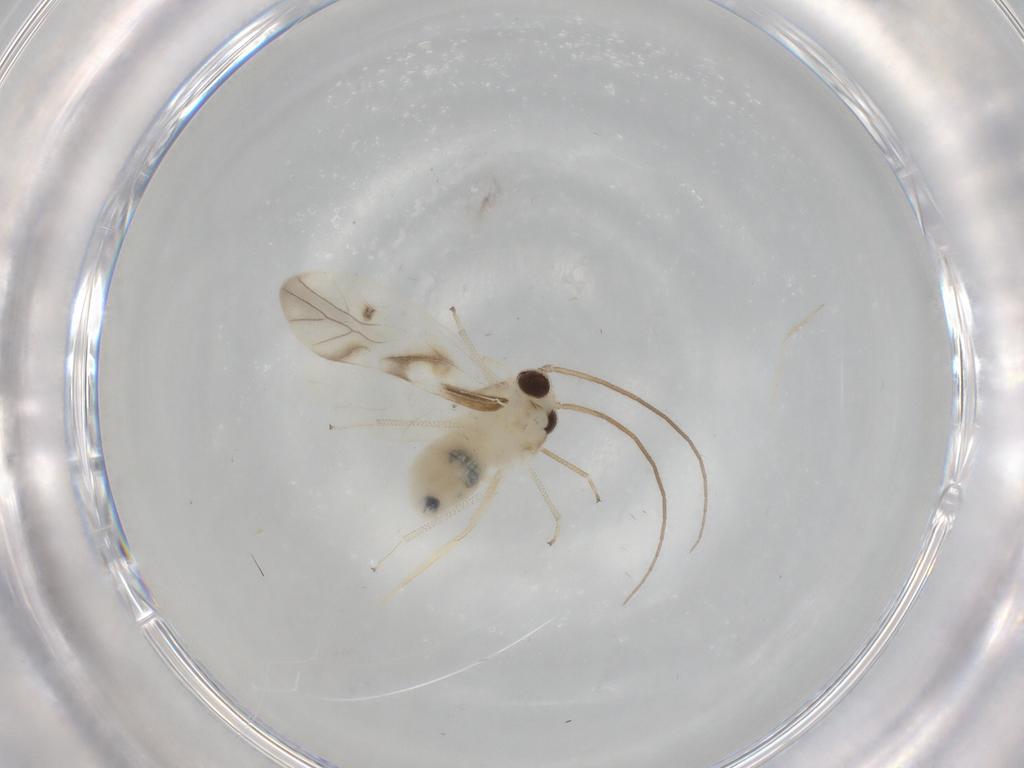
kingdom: Animalia
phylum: Arthropoda
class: Insecta
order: Psocodea
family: Caeciliusidae
